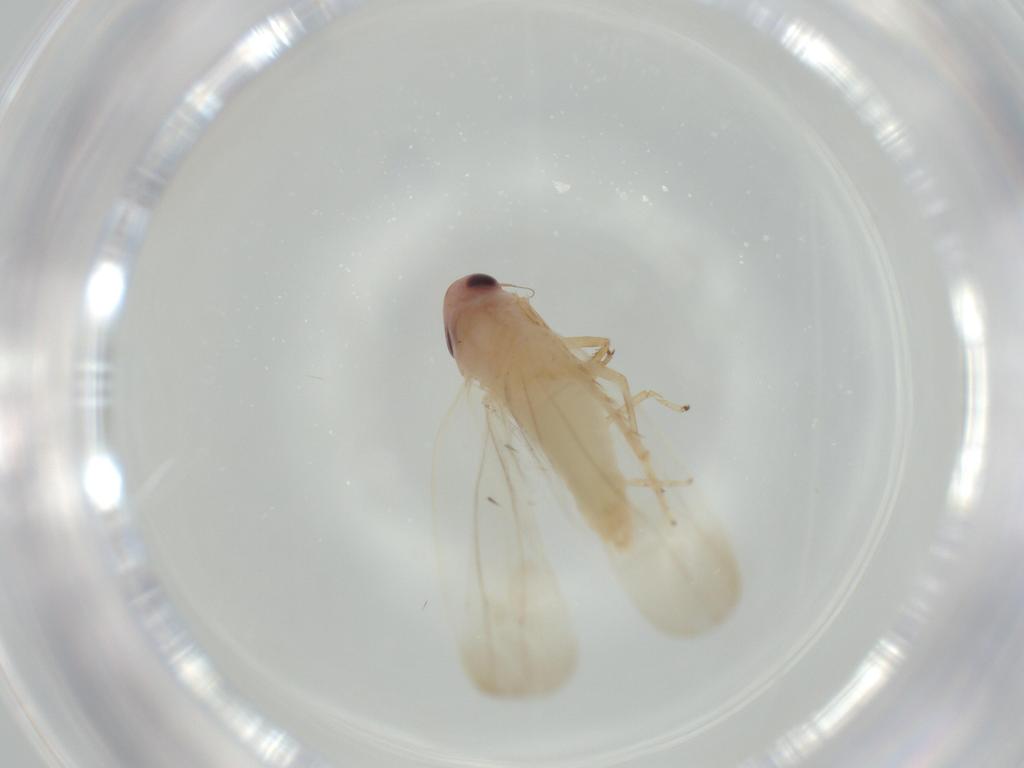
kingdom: Animalia
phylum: Arthropoda
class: Insecta
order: Hemiptera
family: Cicadellidae
